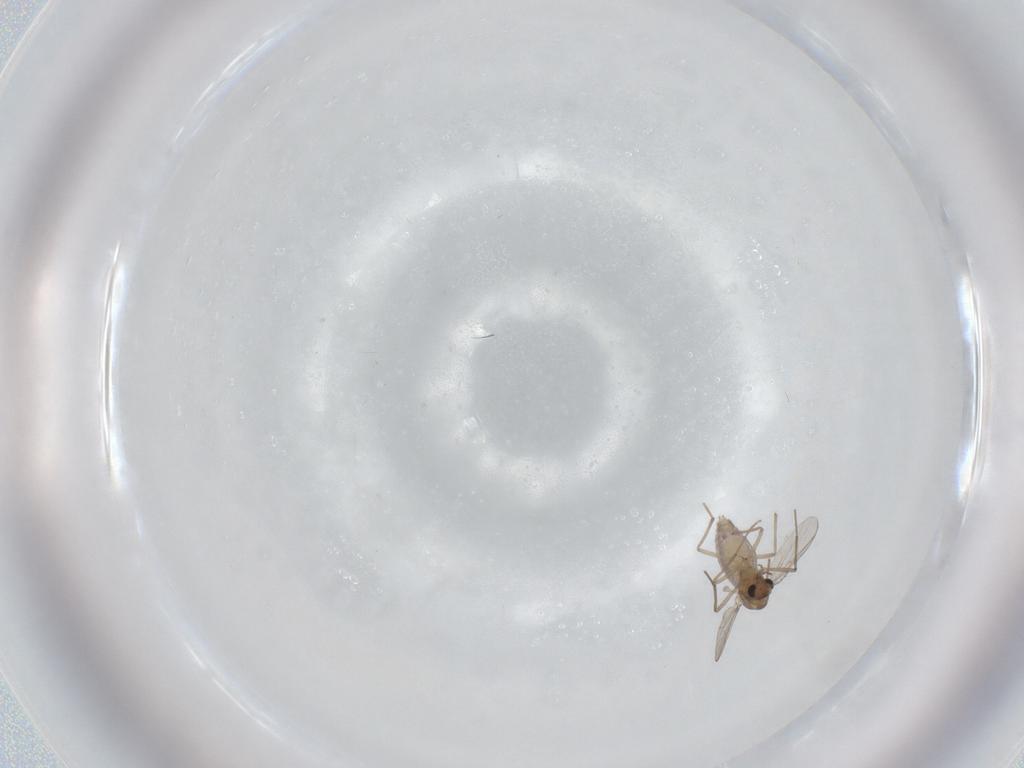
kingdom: Animalia
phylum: Arthropoda
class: Insecta
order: Diptera
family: Chironomidae
